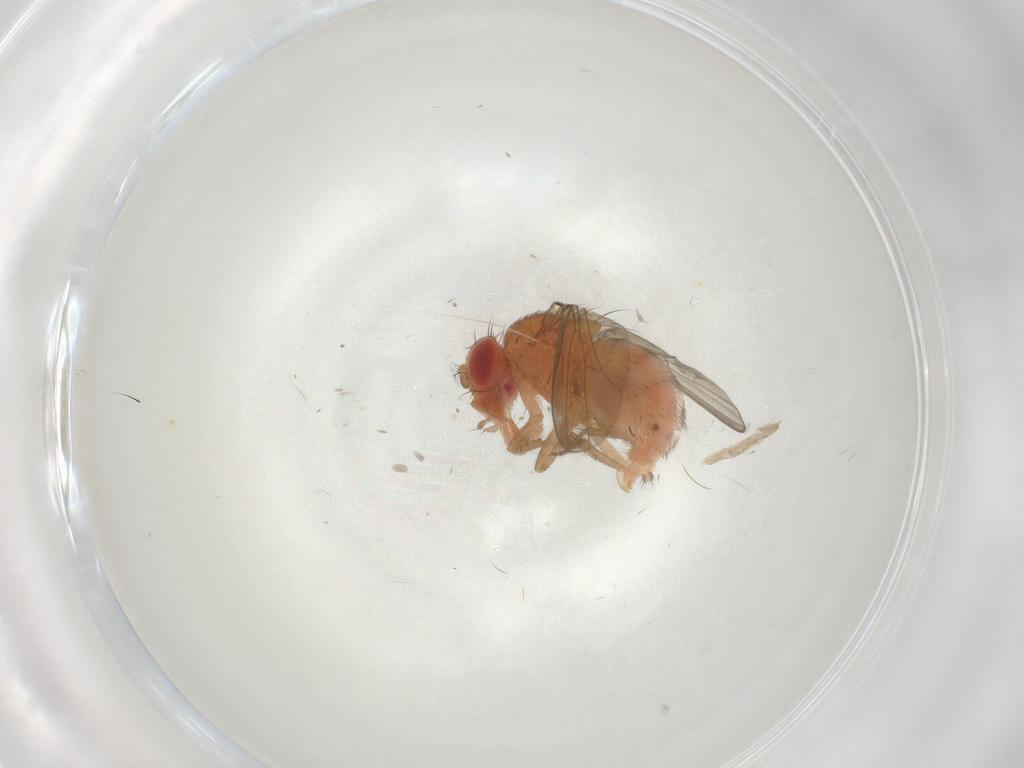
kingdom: Animalia
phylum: Arthropoda
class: Insecta
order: Diptera
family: Drosophilidae
